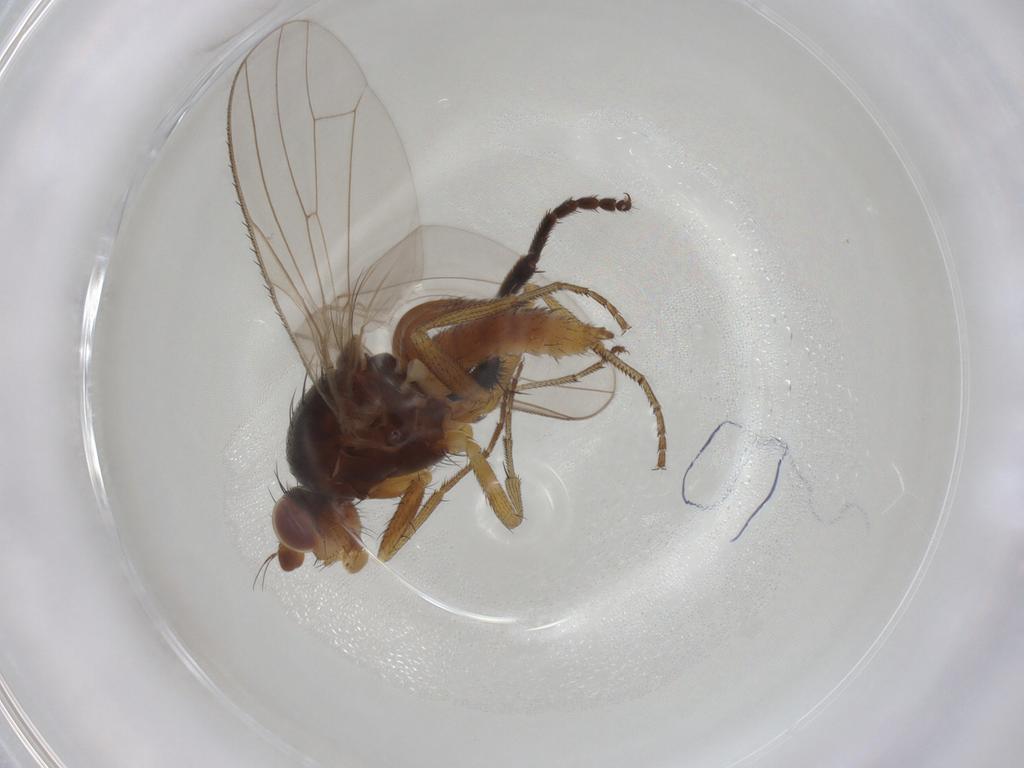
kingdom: Animalia
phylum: Arthropoda
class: Insecta
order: Diptera
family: Heleomyzidae
